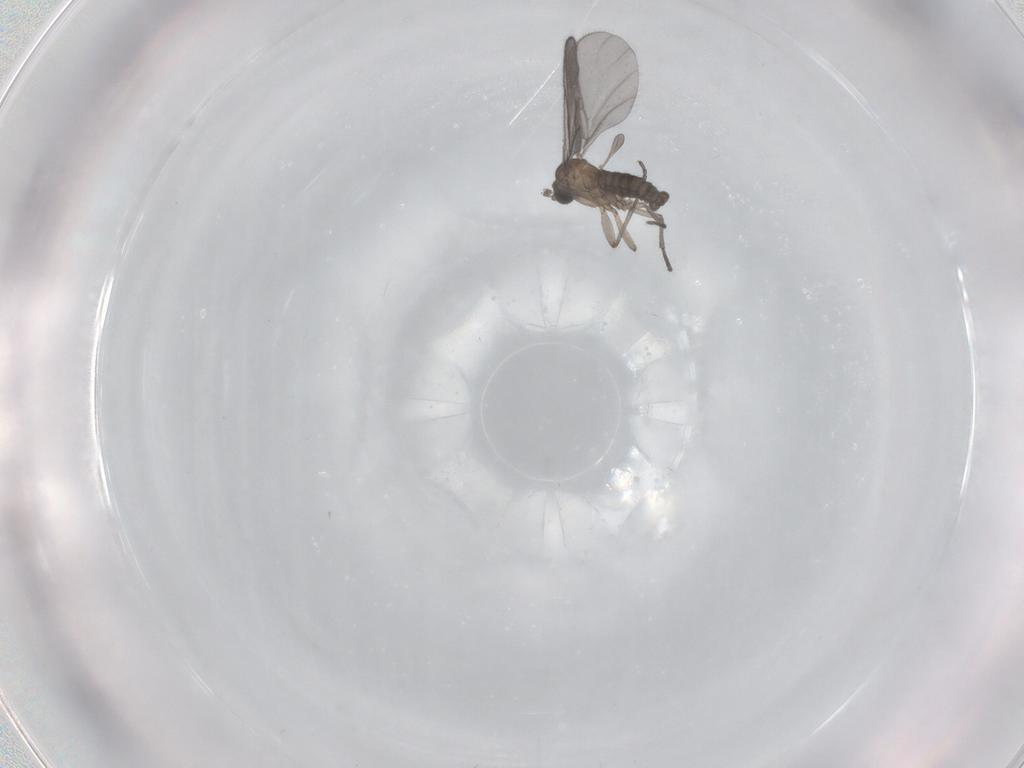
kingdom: Animalia
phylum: Arthropoda
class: Insecta
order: Diptera
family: Sciaridae
